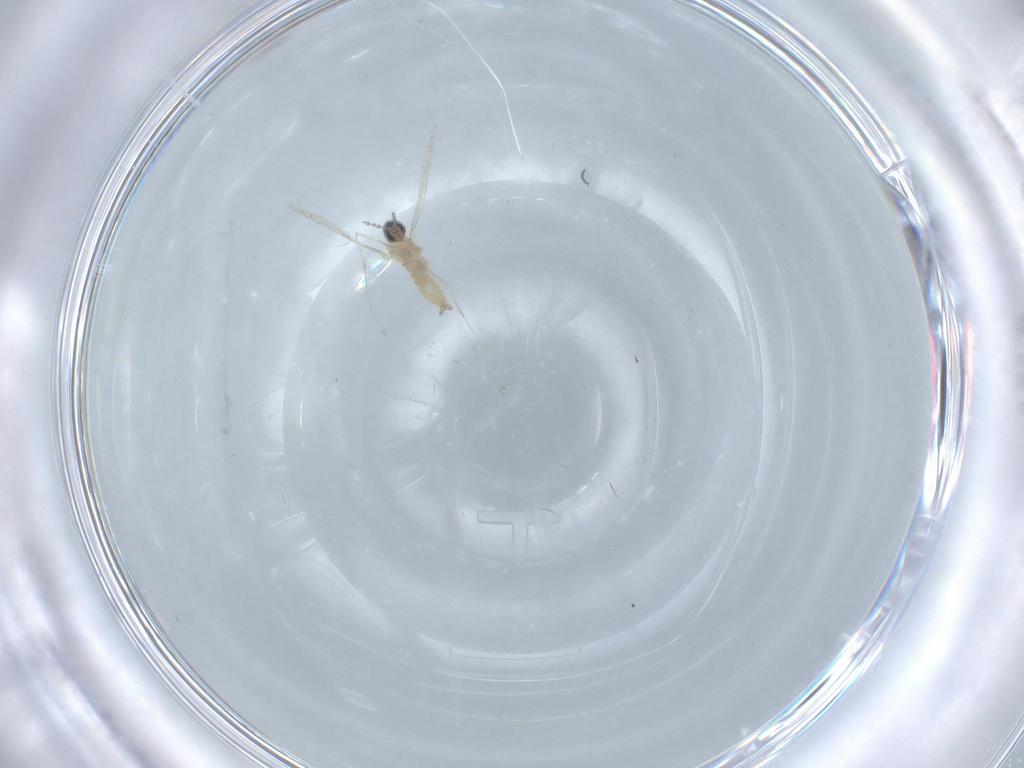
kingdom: Animalia
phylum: Arthropoda
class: Insecta
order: Diptera
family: Cecidomyiidae
